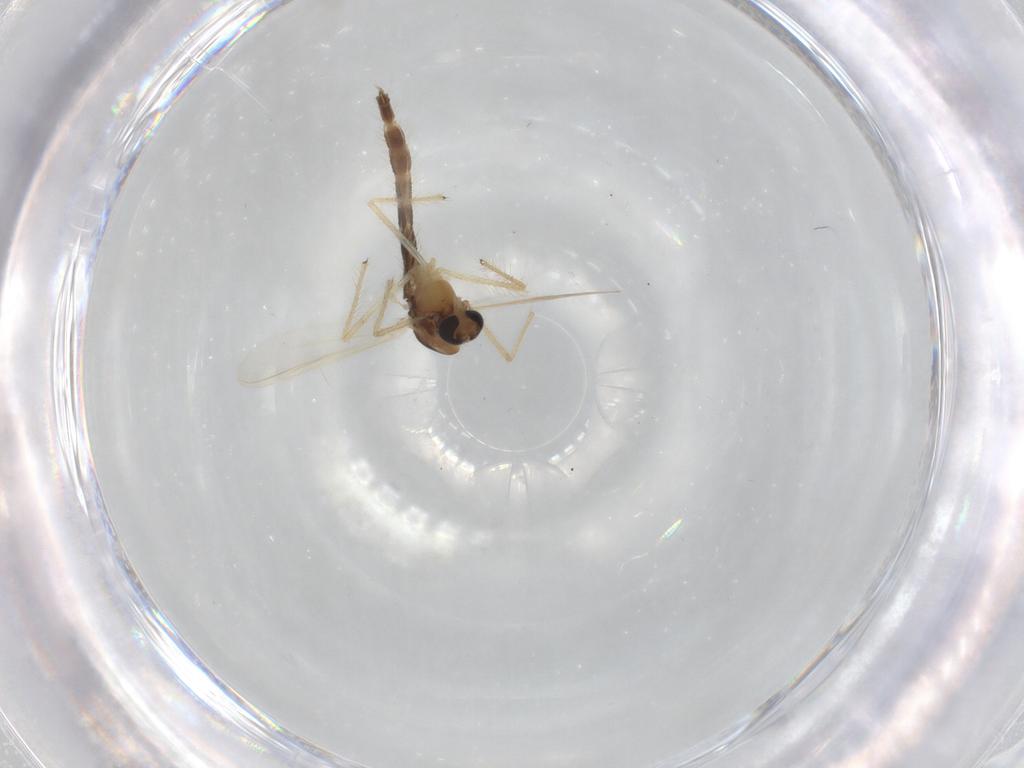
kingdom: Animalia
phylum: Arthropoda
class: Insecta
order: Diptera
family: Chironomidae
